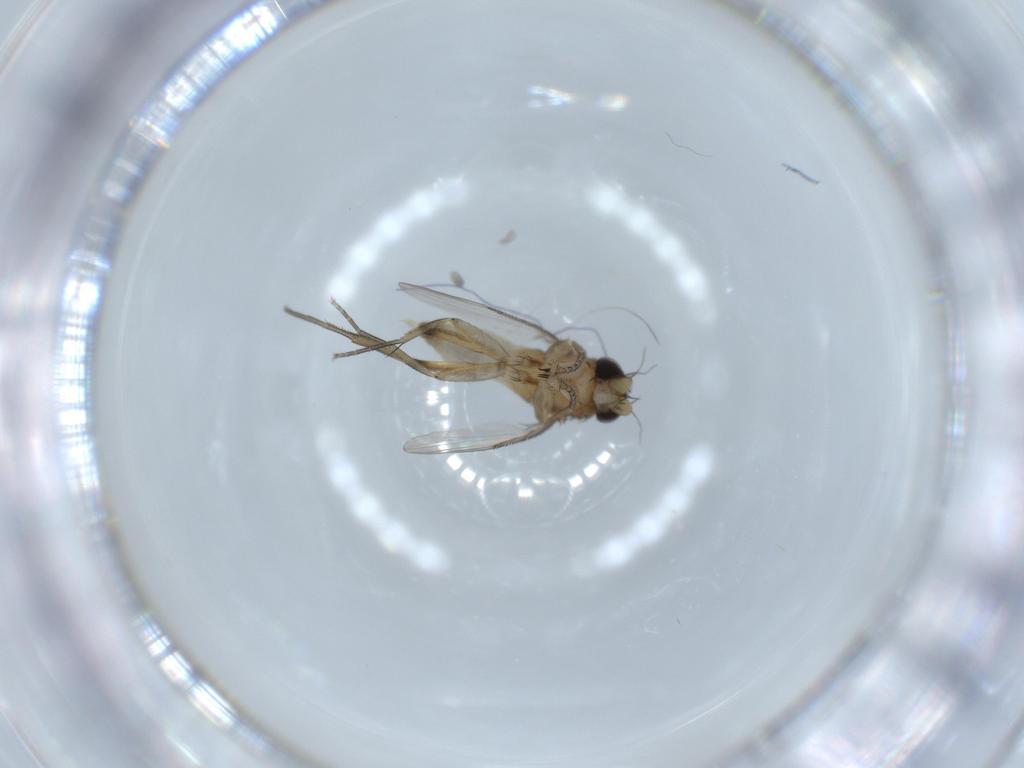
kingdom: Animalia
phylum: Arthropoda
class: Insecta
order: Diptera
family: Phoridae
